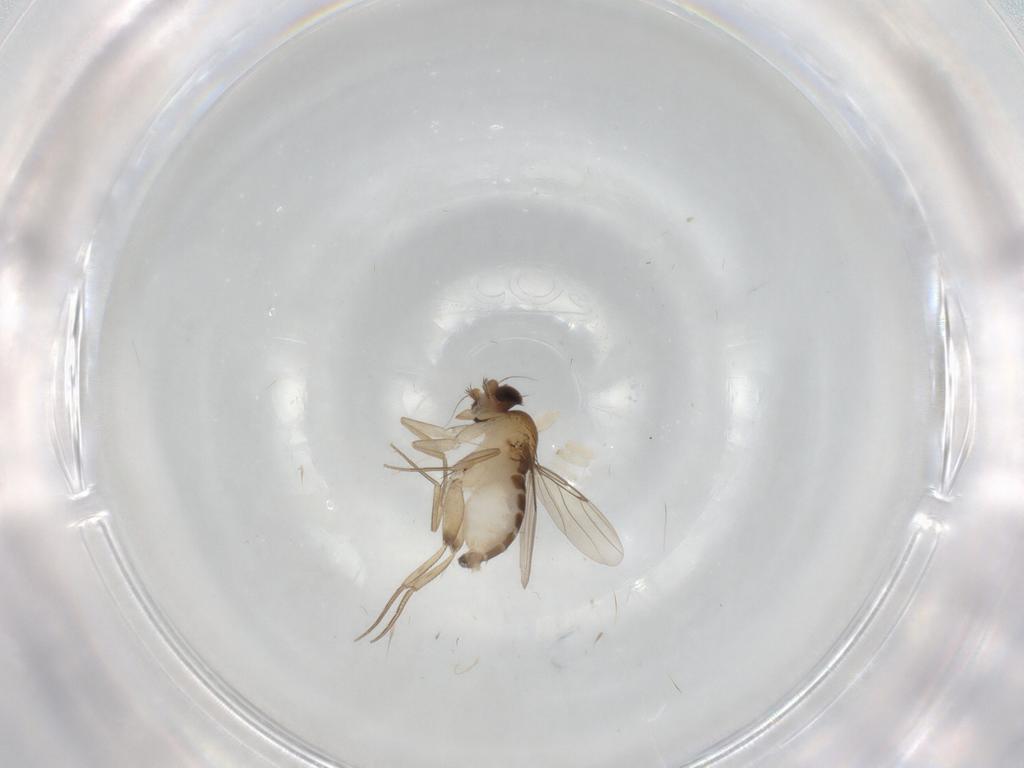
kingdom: Animalia
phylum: Arthropoda
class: Insecta
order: Diptera
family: Phoridae
